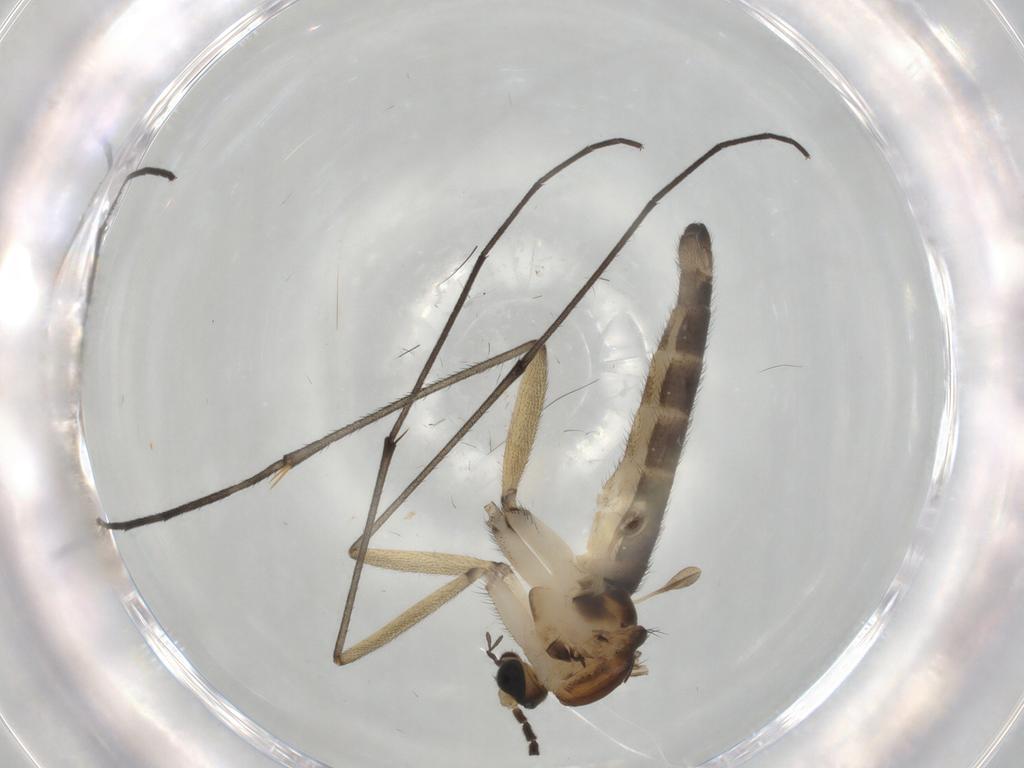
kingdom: Animalia
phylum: Arthropoda
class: Insecta
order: Diptera
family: Sciaridae
